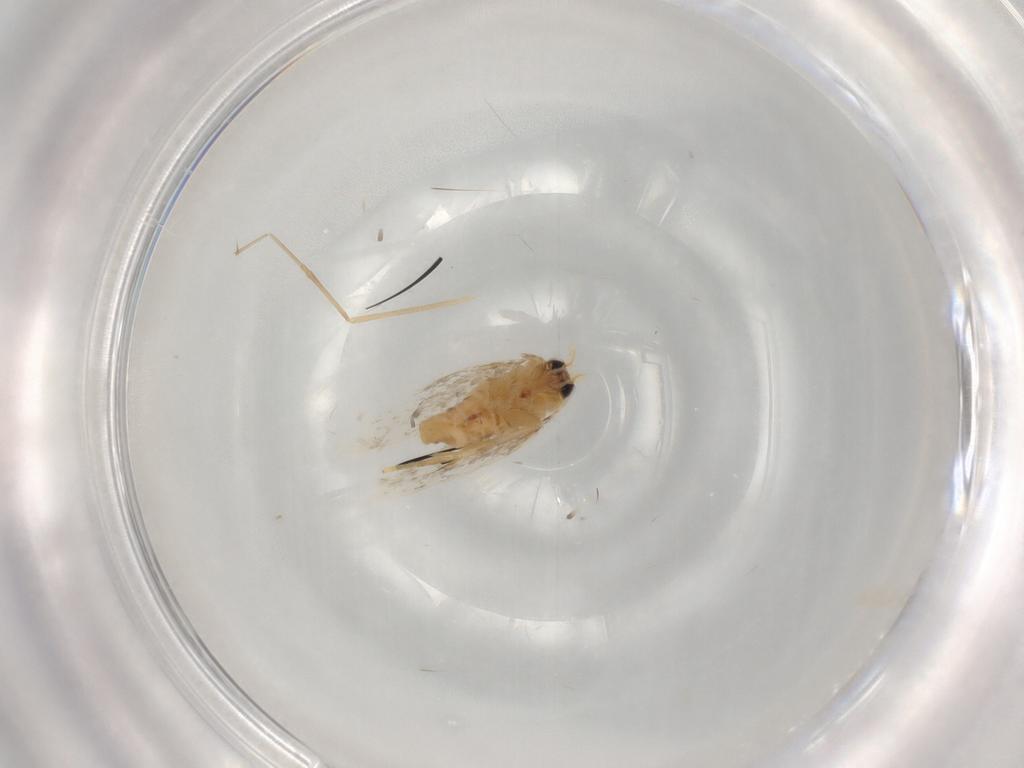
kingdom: Animalia
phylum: Arthropoda
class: Insecta
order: Lepidoptera
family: Nepticulidae
